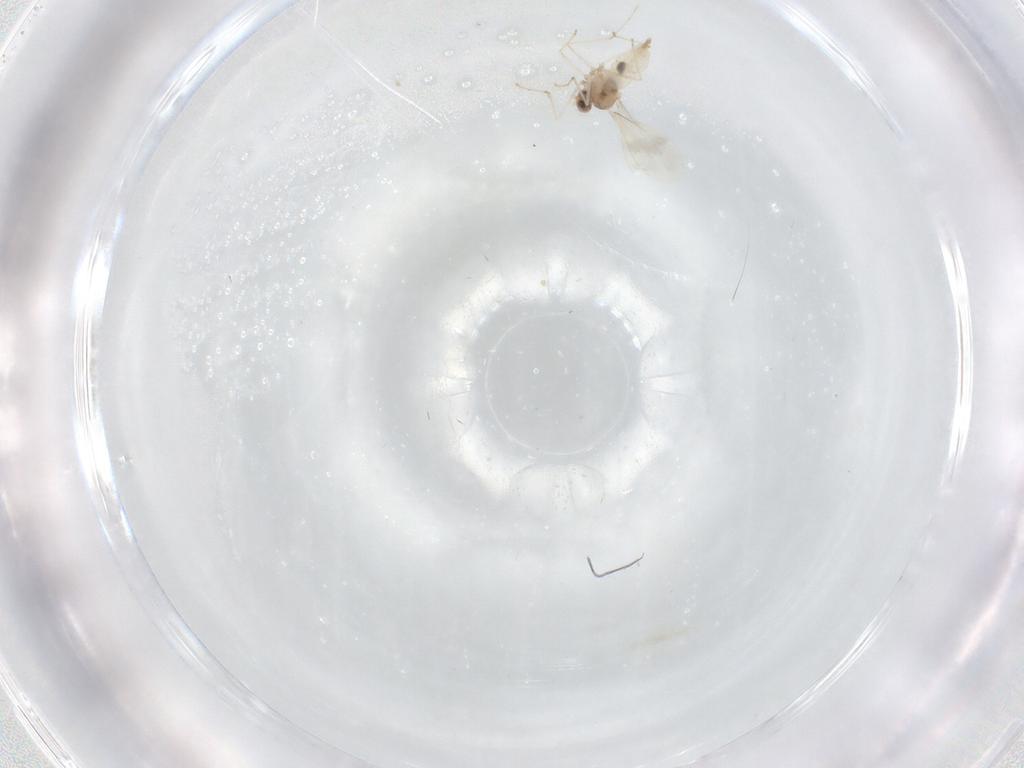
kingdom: Animalia
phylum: Arthropoda
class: Insecta
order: Diptera
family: Cecidomyiidae
